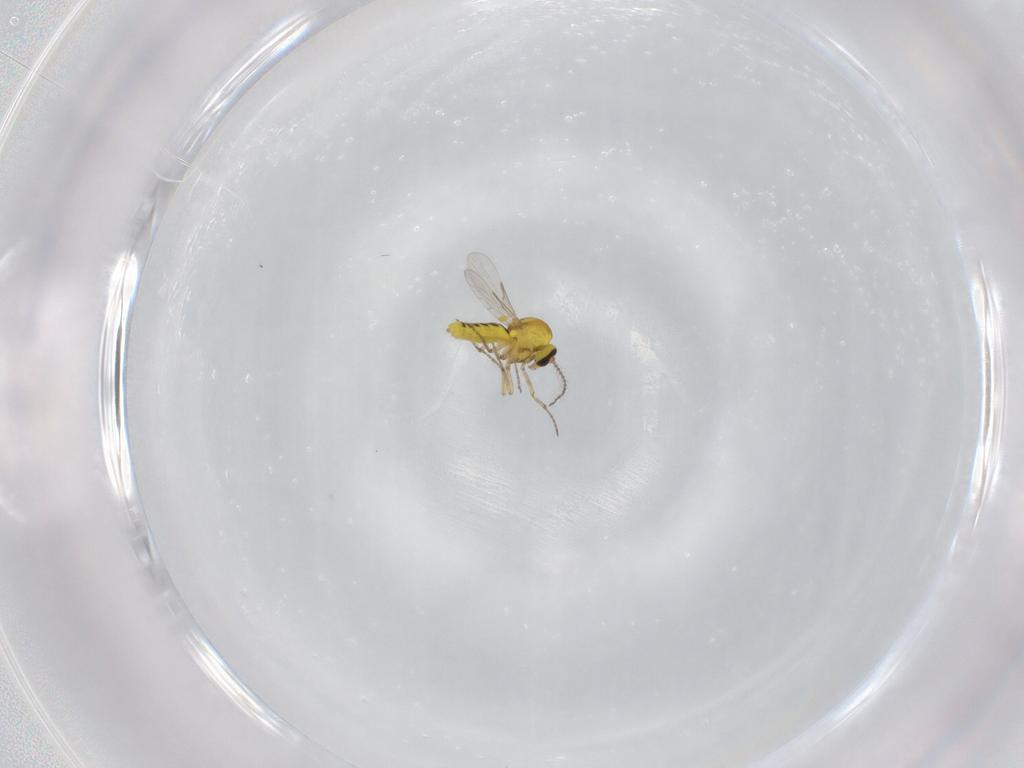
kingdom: Animalia
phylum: Arthropoda
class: Insecta
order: Diptera
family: Ceratopogonidae
